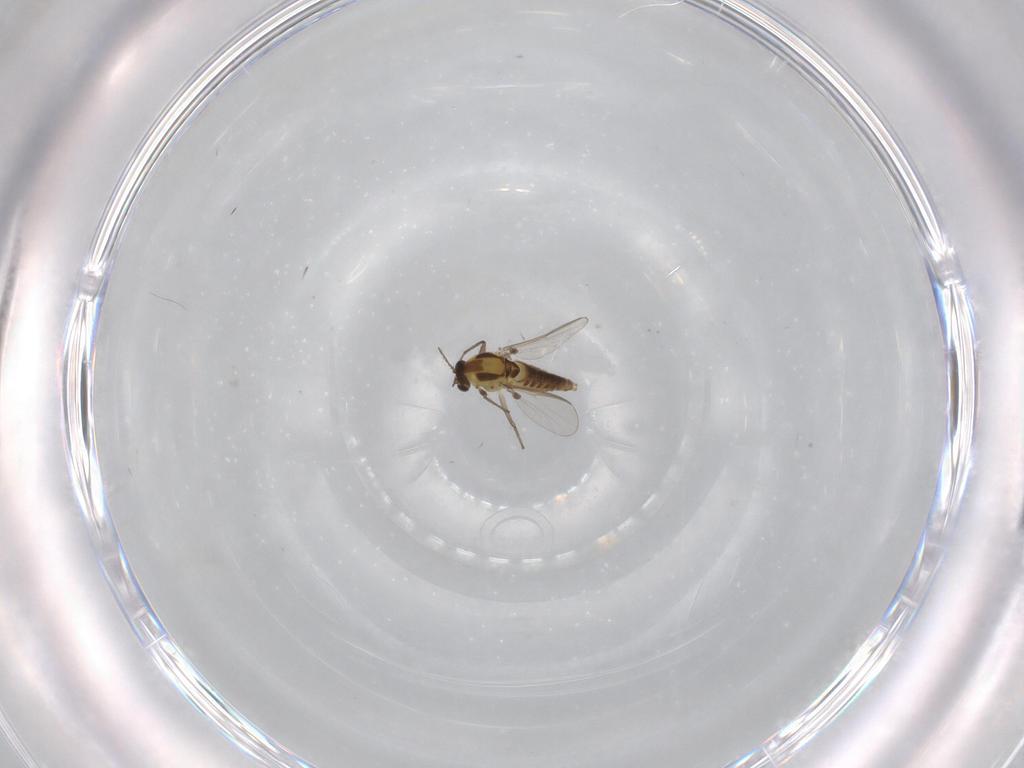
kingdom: Animalia
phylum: Arthropoda
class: Insecta
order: Diptera
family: Chironomidae
